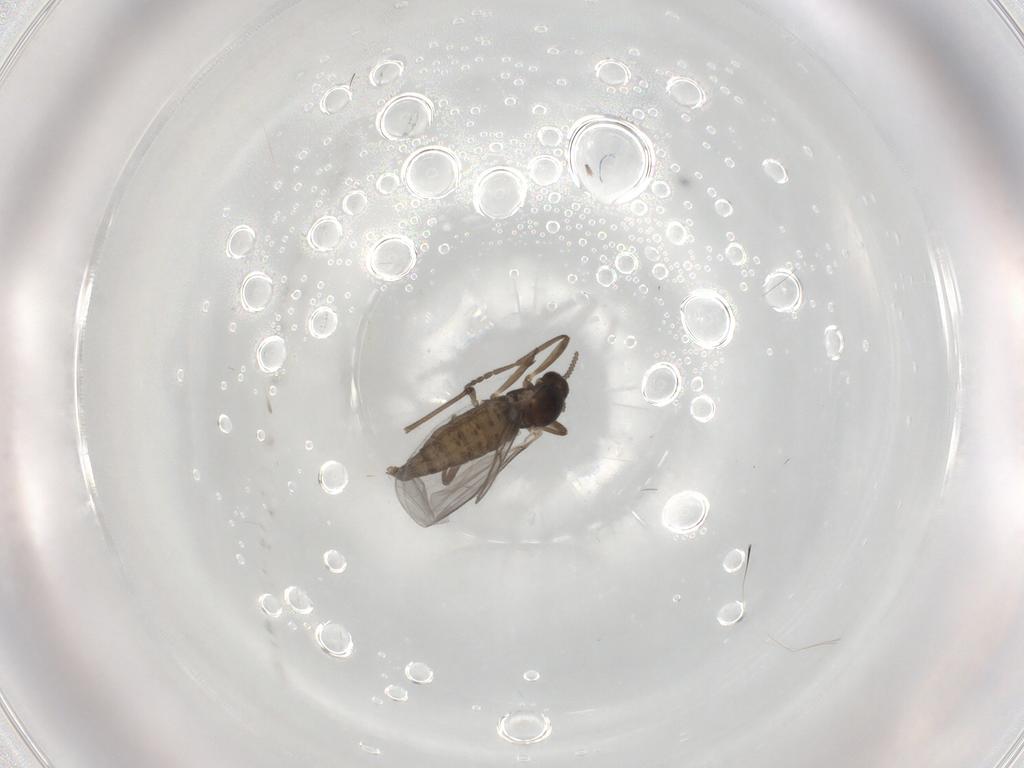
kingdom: Animalia
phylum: Arthropoda
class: Insecta
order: Diptera
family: Cecidomyiidae
